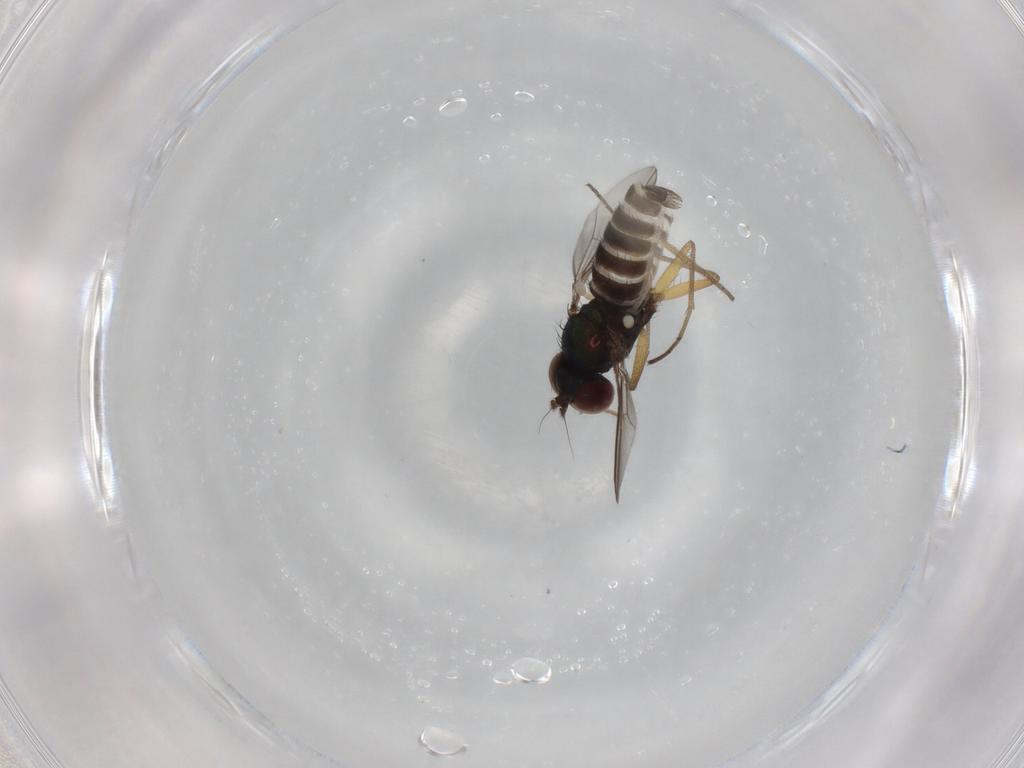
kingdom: Animalia
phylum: Arthropoda
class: Insecta
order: Diptera
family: Dolichopodidae
